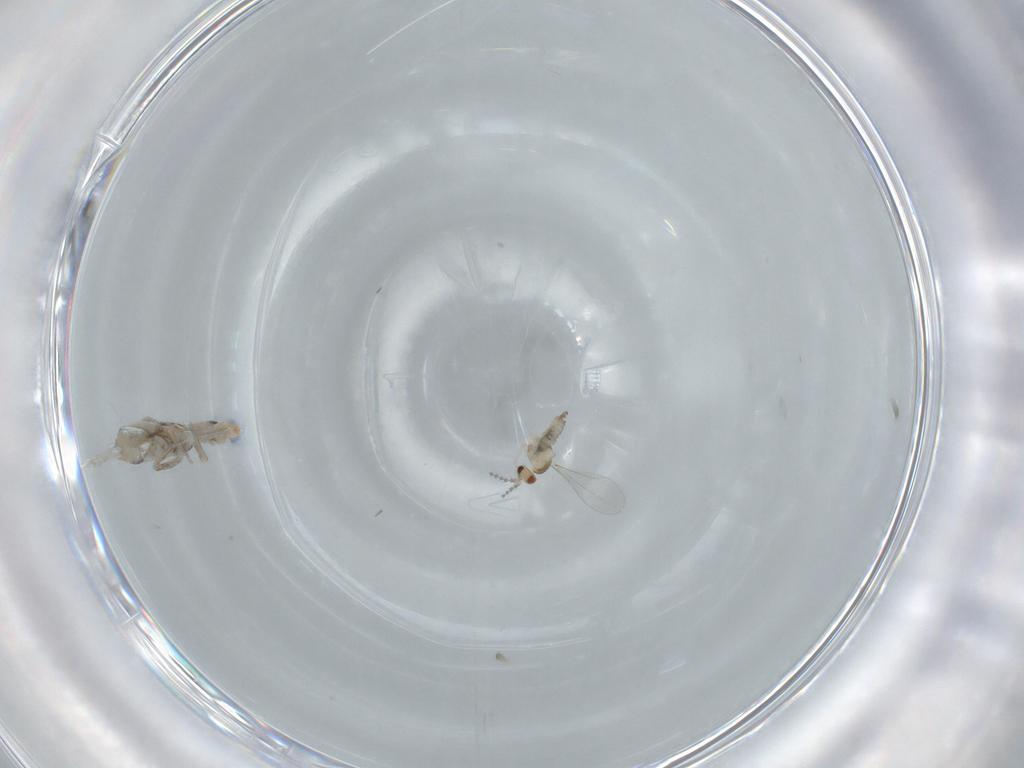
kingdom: Animalia
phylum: Arthropoda
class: Collembola
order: Entomobryomorpha
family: Entomobryidae
